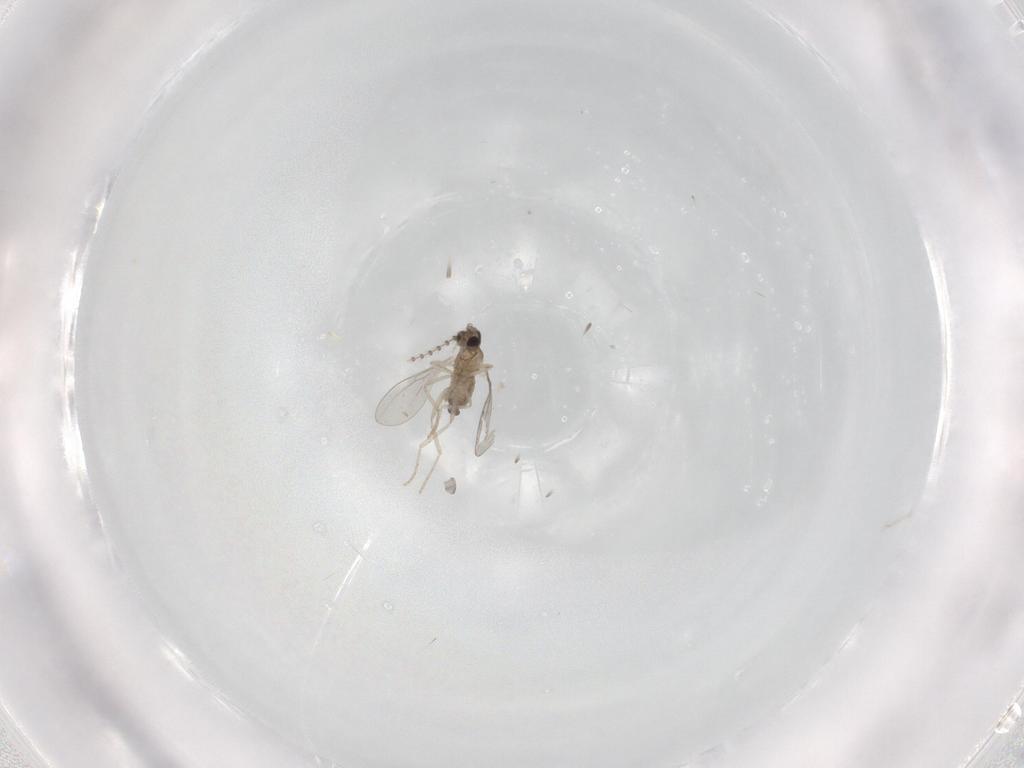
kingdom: Animalia
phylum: Arthropoda
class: Insecta
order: Diptera
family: Cecidomyiidae
